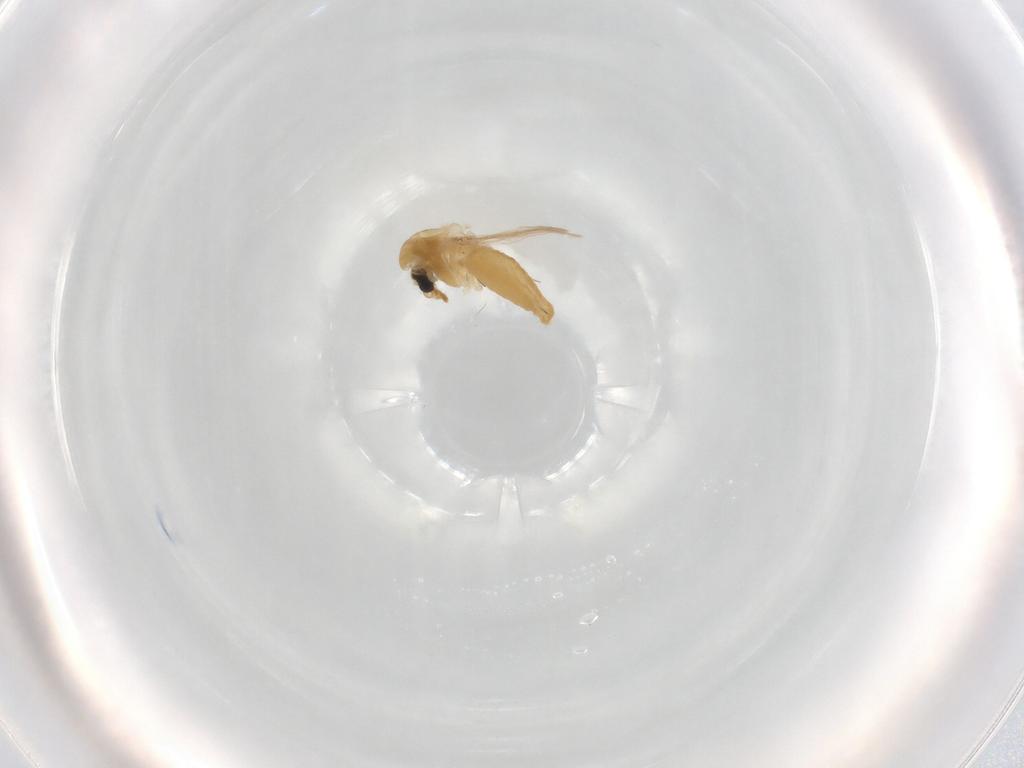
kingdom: Animalia
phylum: Arthropoda
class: Insecta
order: Diptera
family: Chironomidae
